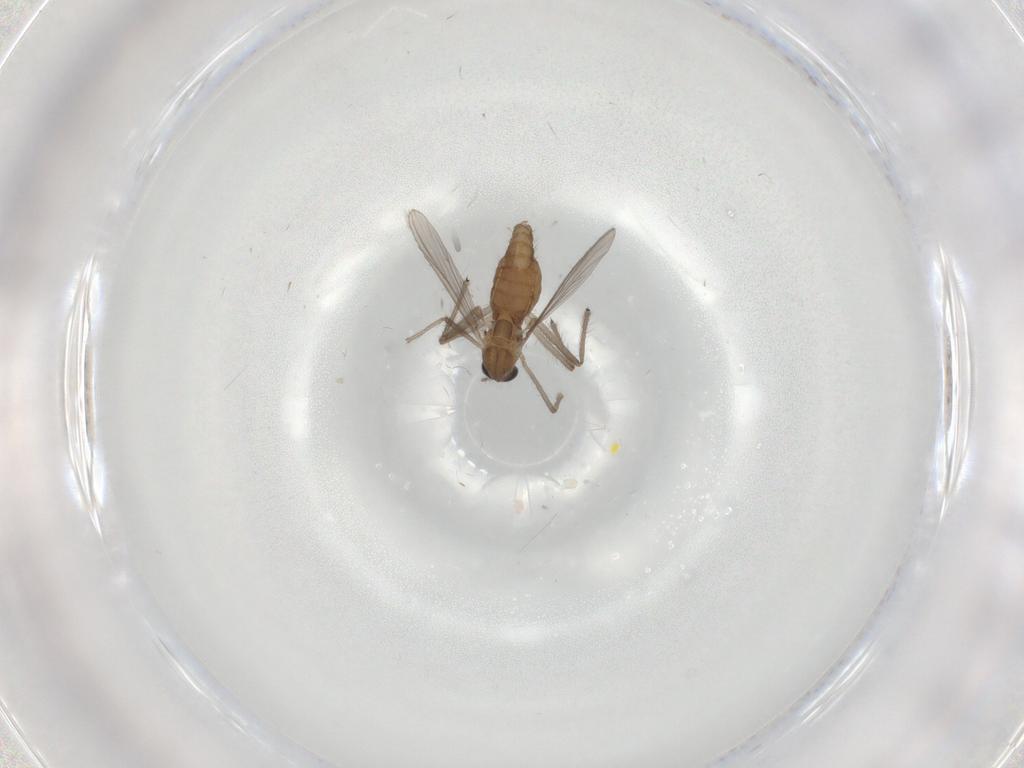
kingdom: Animalia
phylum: Arthropoda
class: Insecta
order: Diptera
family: Chironomidae
